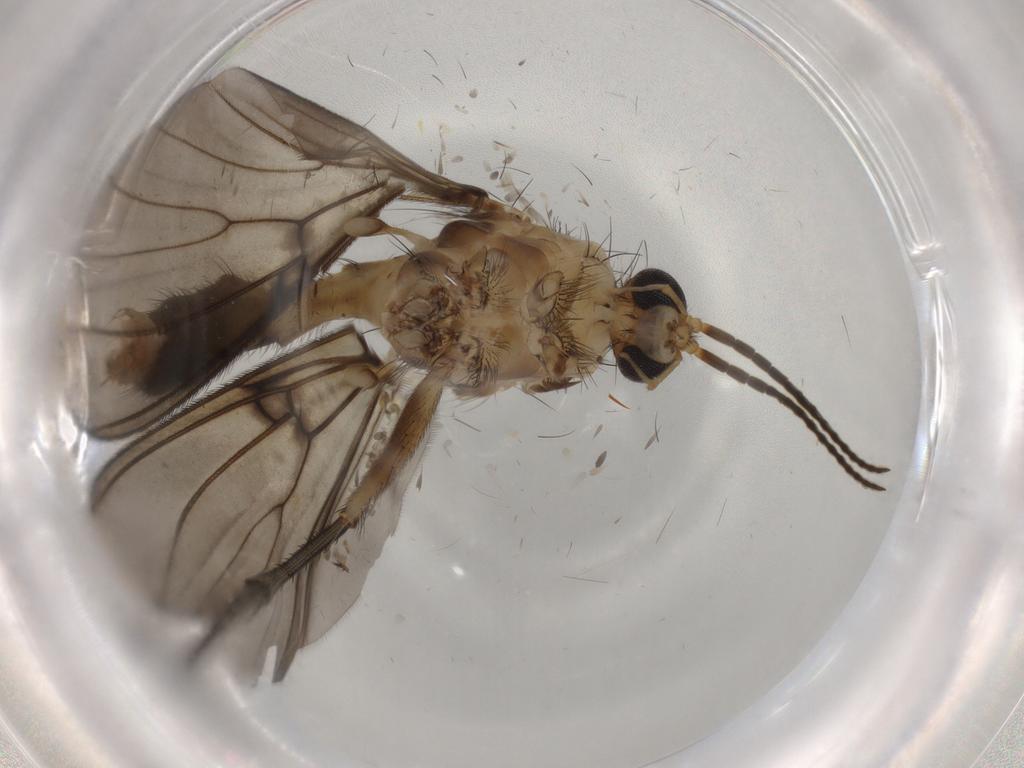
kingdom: Animalia
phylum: Arthropoda
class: Insecta
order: Diptera
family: Mycetophilidae
